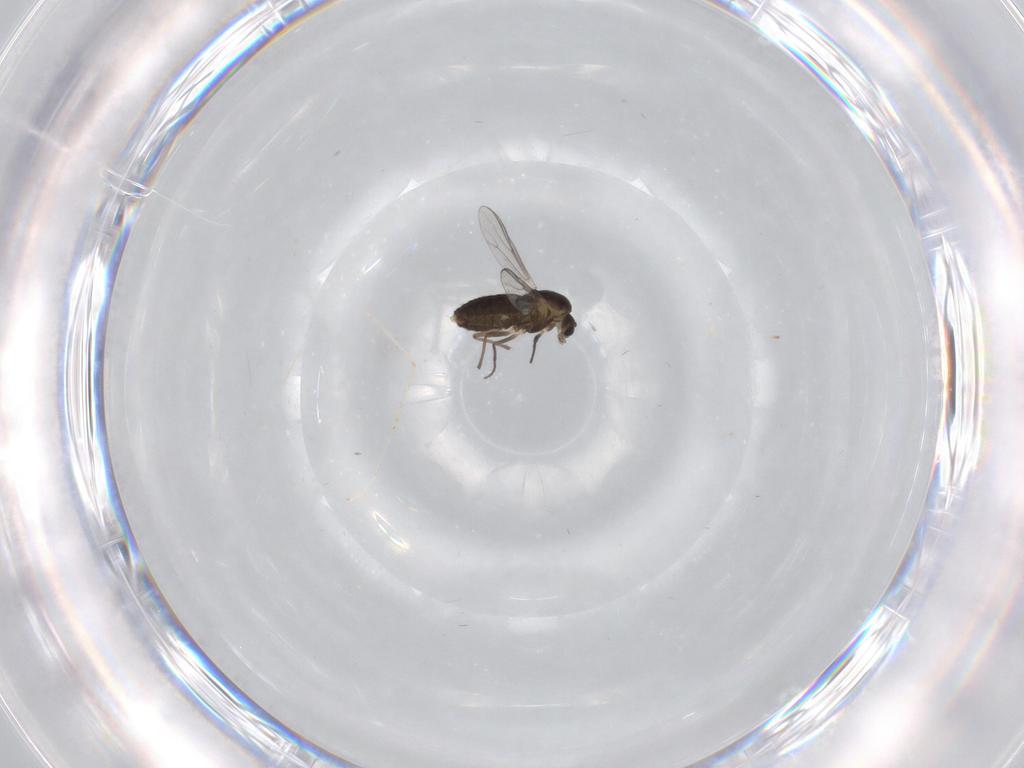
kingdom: Animalia
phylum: Arthropoda
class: Insecta
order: Diptera
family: Chironomidae
